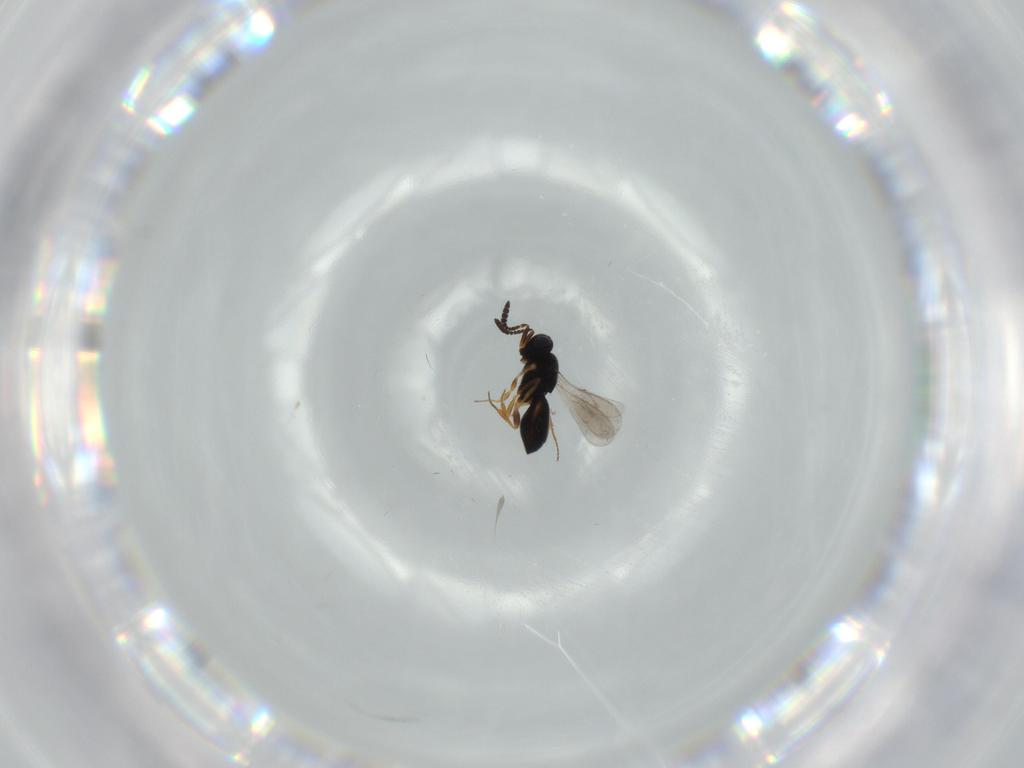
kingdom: Animalia
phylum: Arthropoda
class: Insecta
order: Hymenoptera
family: Scelionidae
